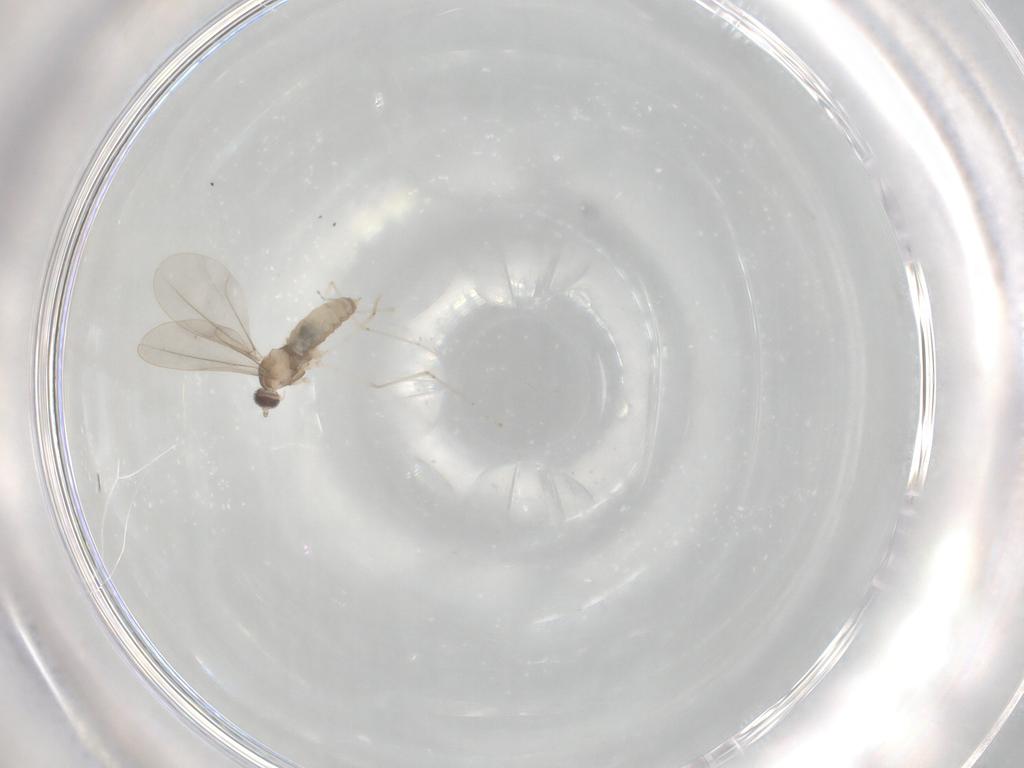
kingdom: Animalia
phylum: Arthropoda
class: Insecta
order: Diptera
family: Cecidomyiidae
